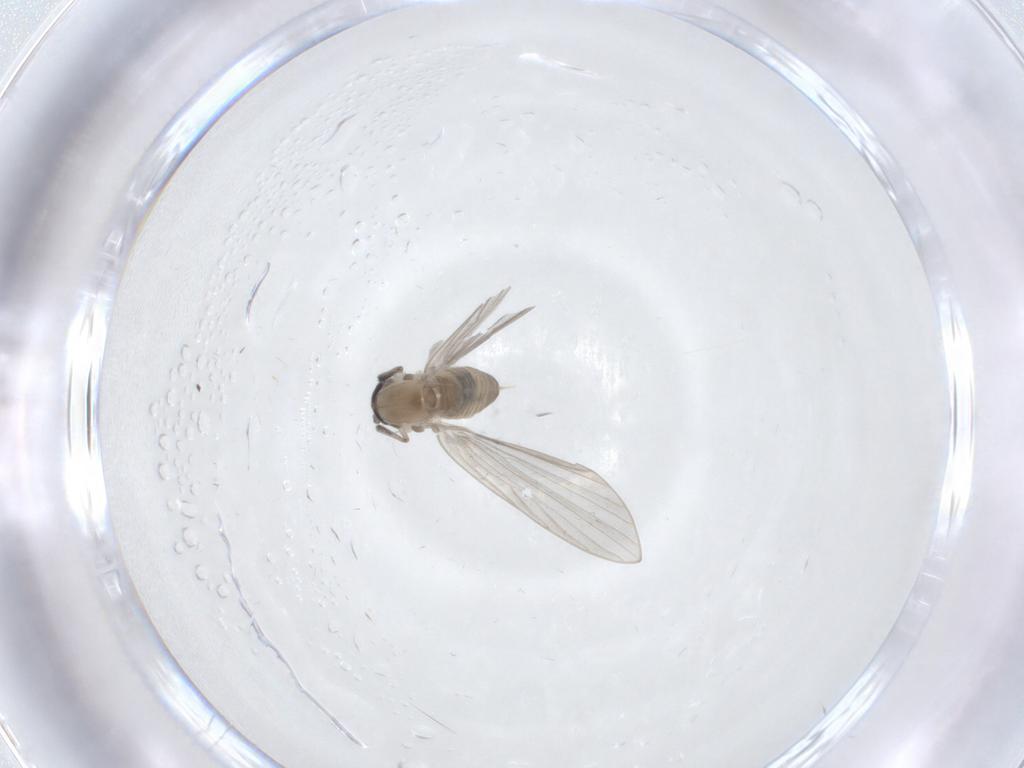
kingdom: Animalia
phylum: Arthropoda
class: Insecta
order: Diptera
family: Psychodidae
